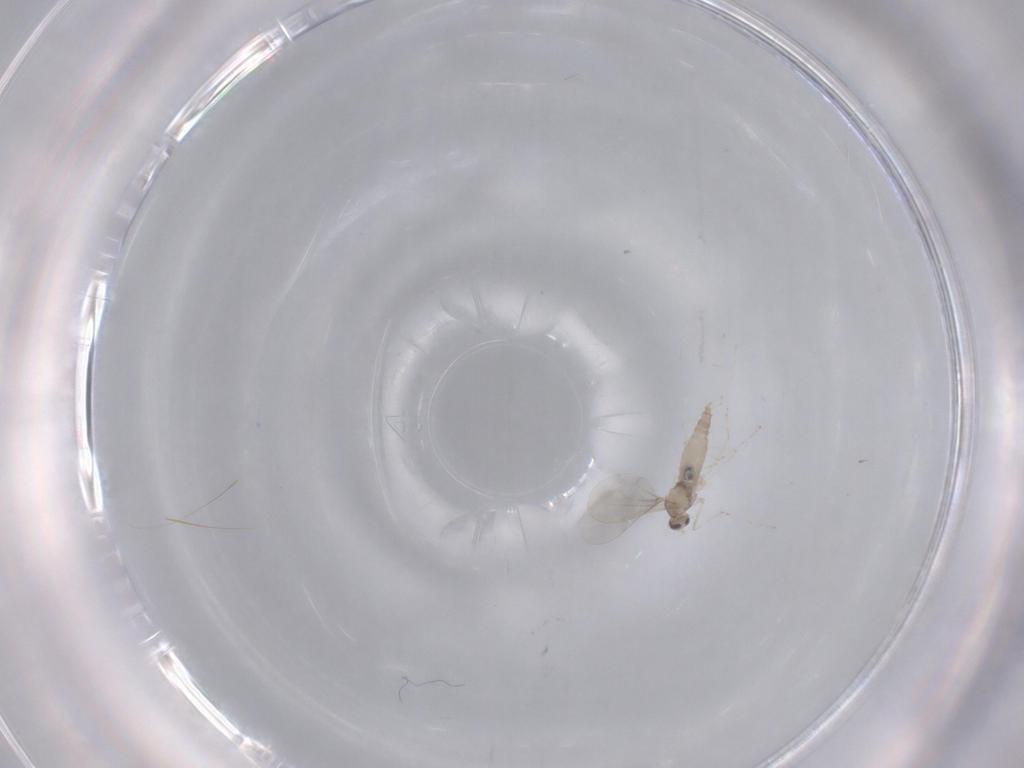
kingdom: Animalia
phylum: Arthropoda
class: Insecta
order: Diptera
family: Cecidomyiidae
